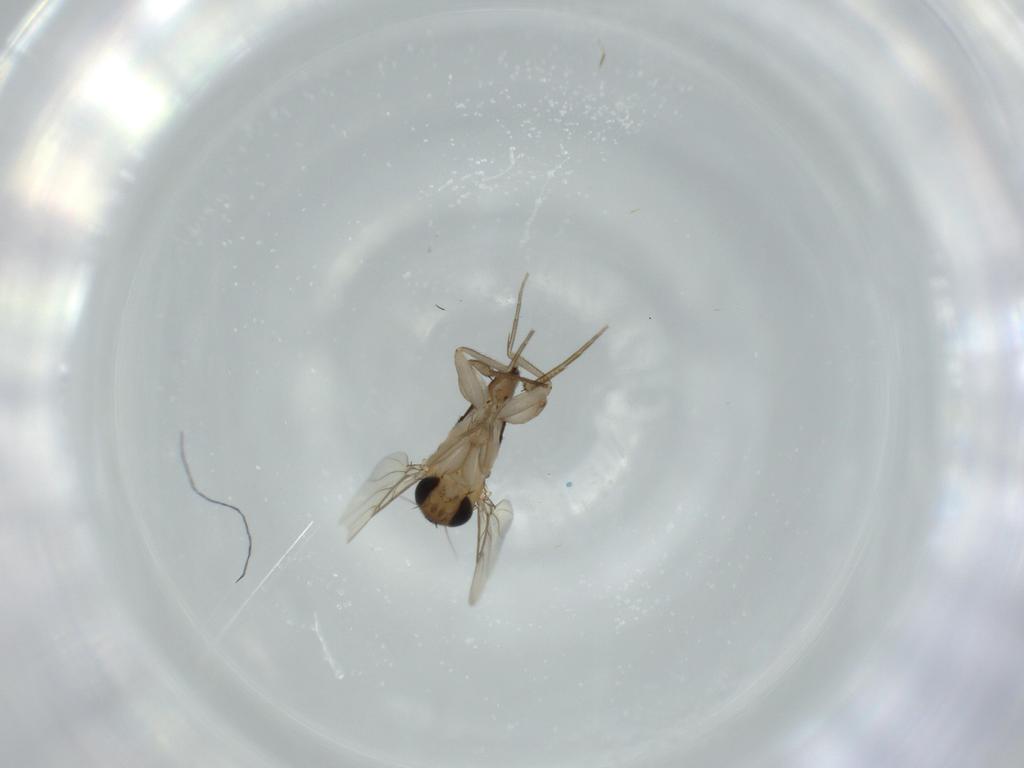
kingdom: Animalia
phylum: Arthropoda
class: Insecta
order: Diptera
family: Phoridae
